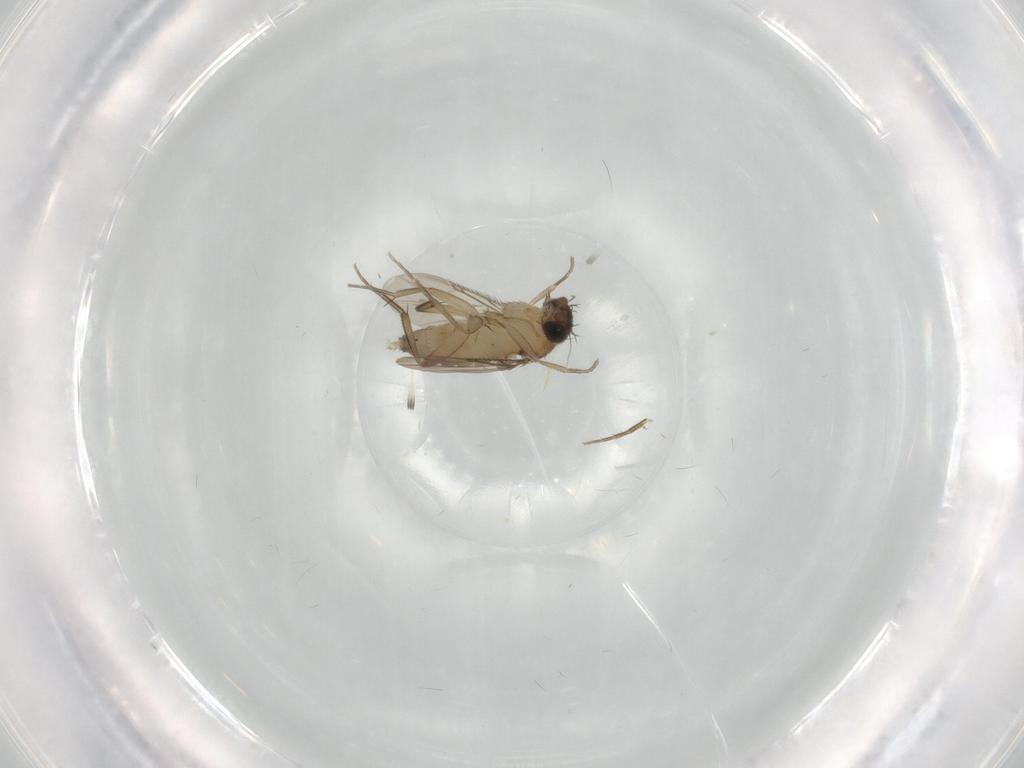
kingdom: Animalia
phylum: Arthropoda
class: Insecta
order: Diptera
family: Phoridae
